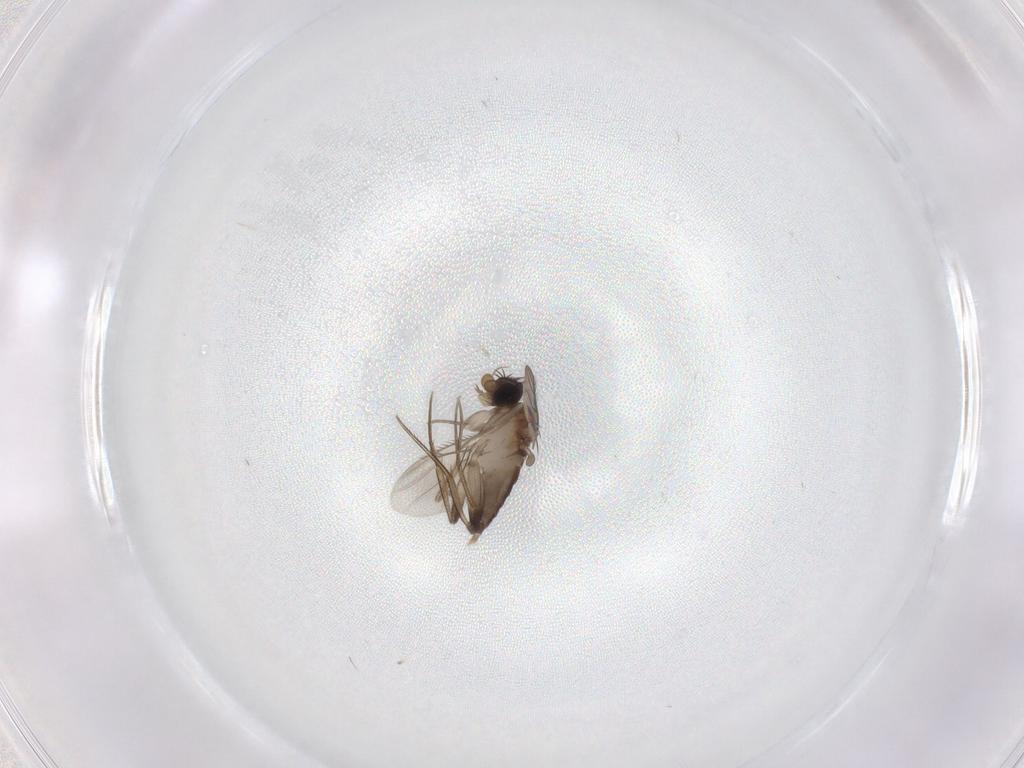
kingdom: Animalia
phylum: Arthropoda
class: Insecta
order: Diptera
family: Phoridae
